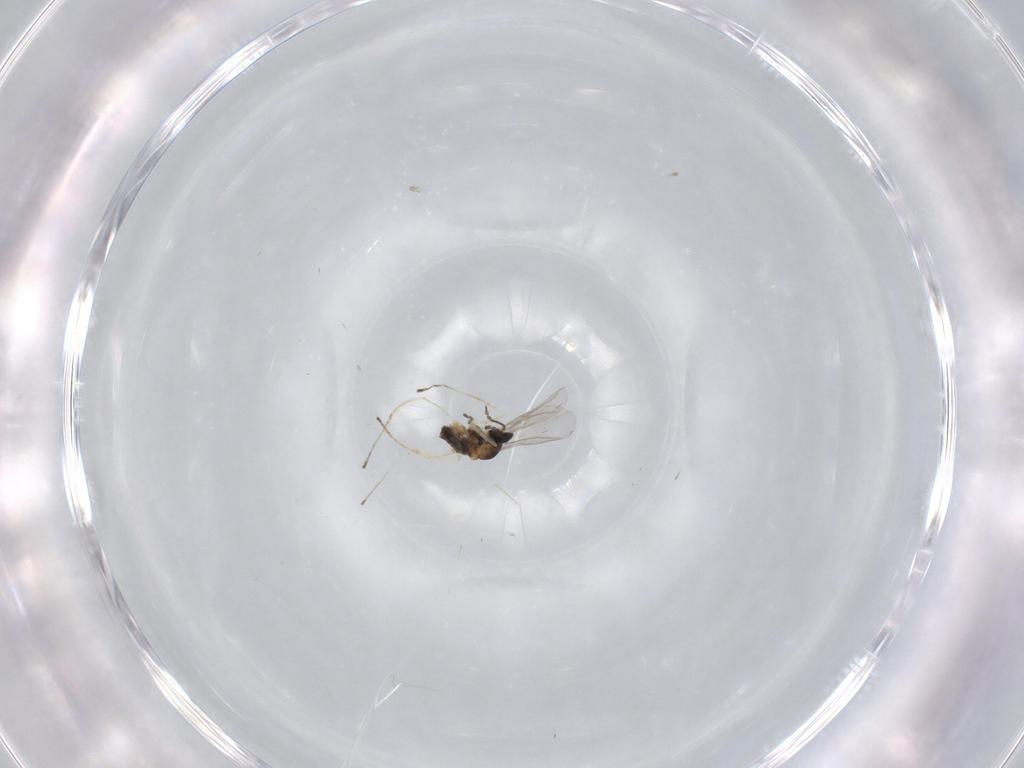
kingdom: Animalia
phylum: Arthropoda
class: Insecta
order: Diptera
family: Cecidomyiidae
